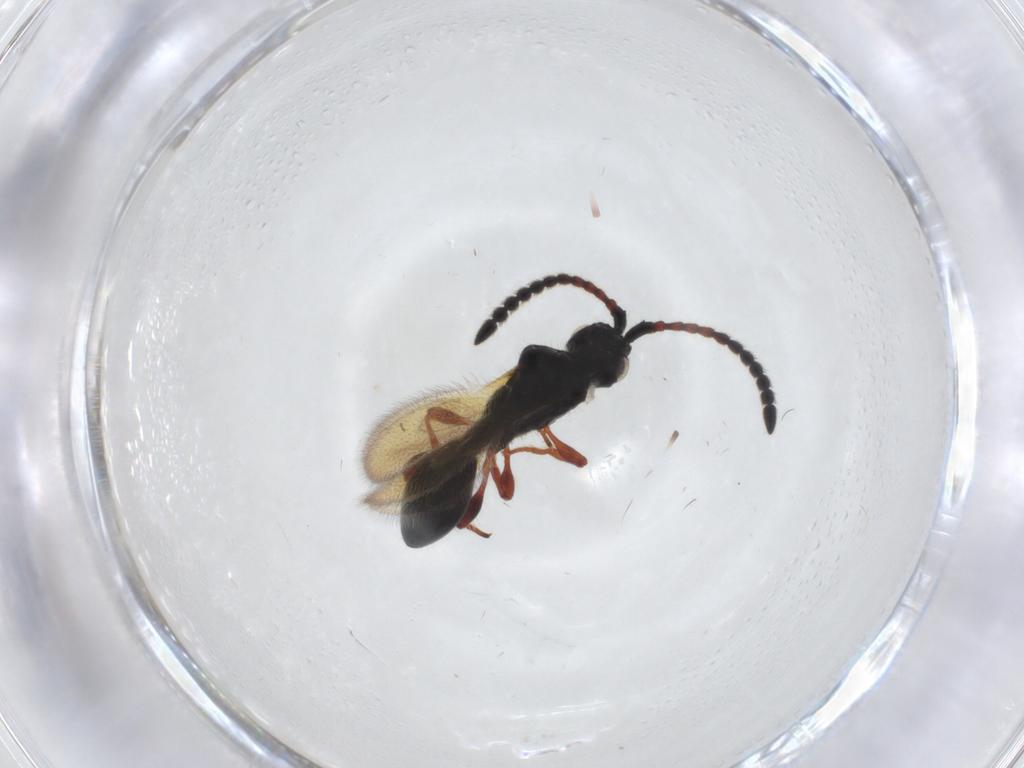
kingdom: Animalia
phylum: Arthropoda
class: Insecta
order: Hymenoptera
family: Diapriidae
